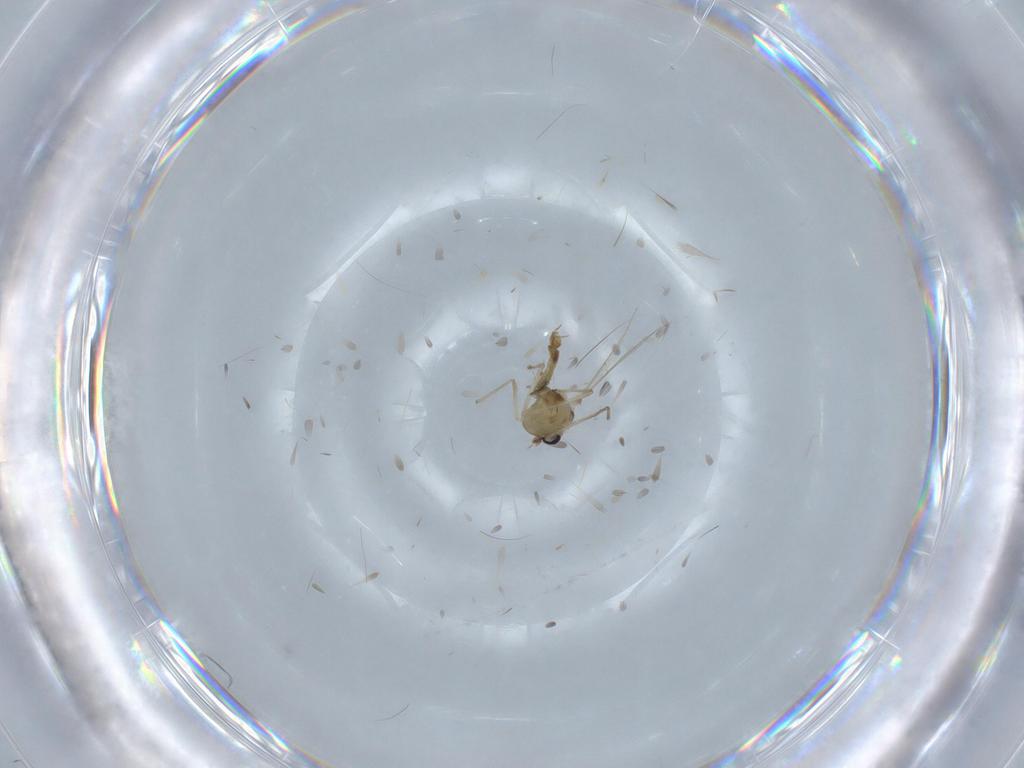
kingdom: Animalia
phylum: Arthropoda
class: Insecta
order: Diptera
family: Chironomidae
